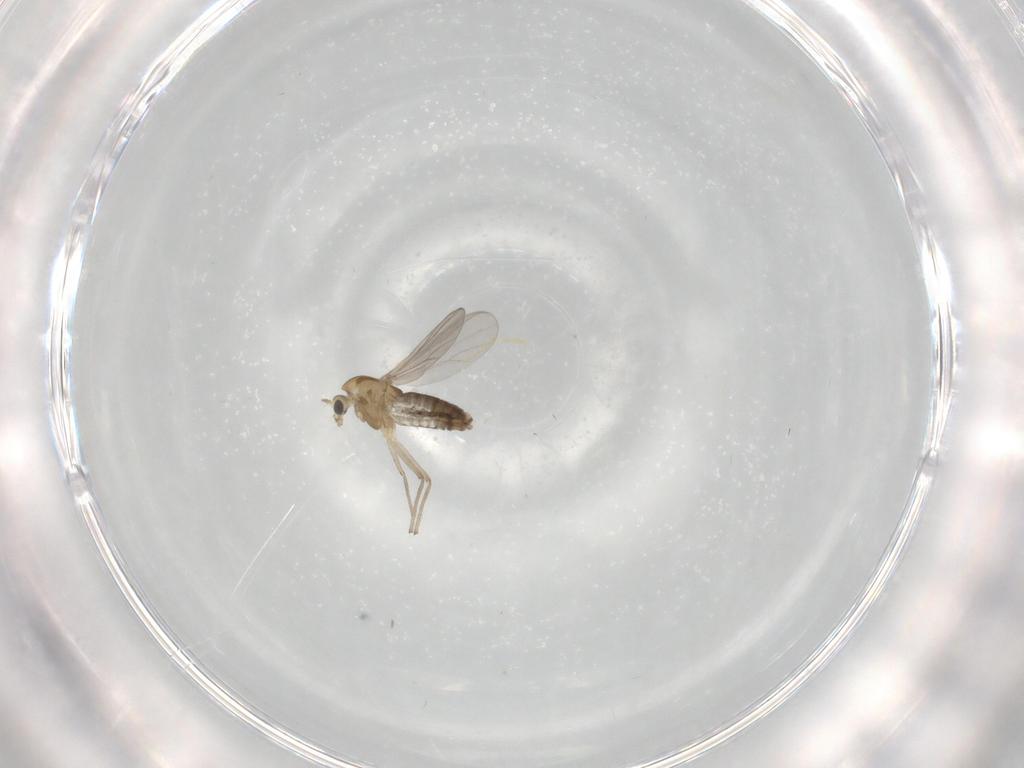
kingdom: Animalia
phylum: Arthropoda
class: Insecta
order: Diptera
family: Chironomidae
